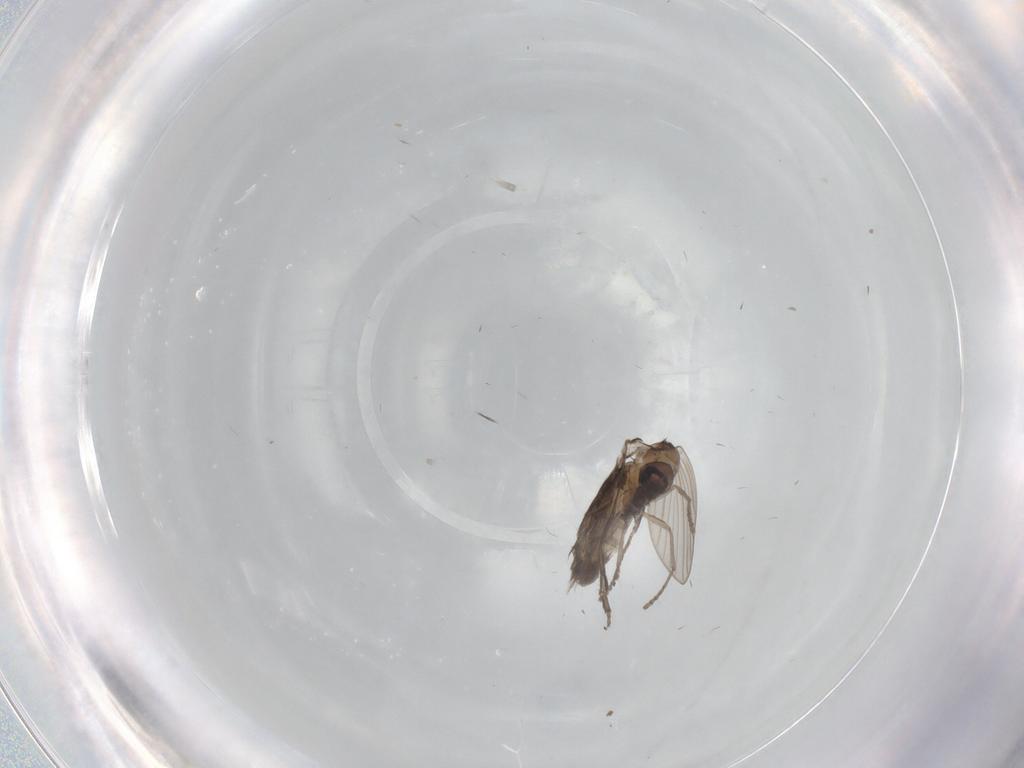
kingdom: Animalia
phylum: Arthropoda
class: Insecta
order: Diptera
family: Psychodidae
